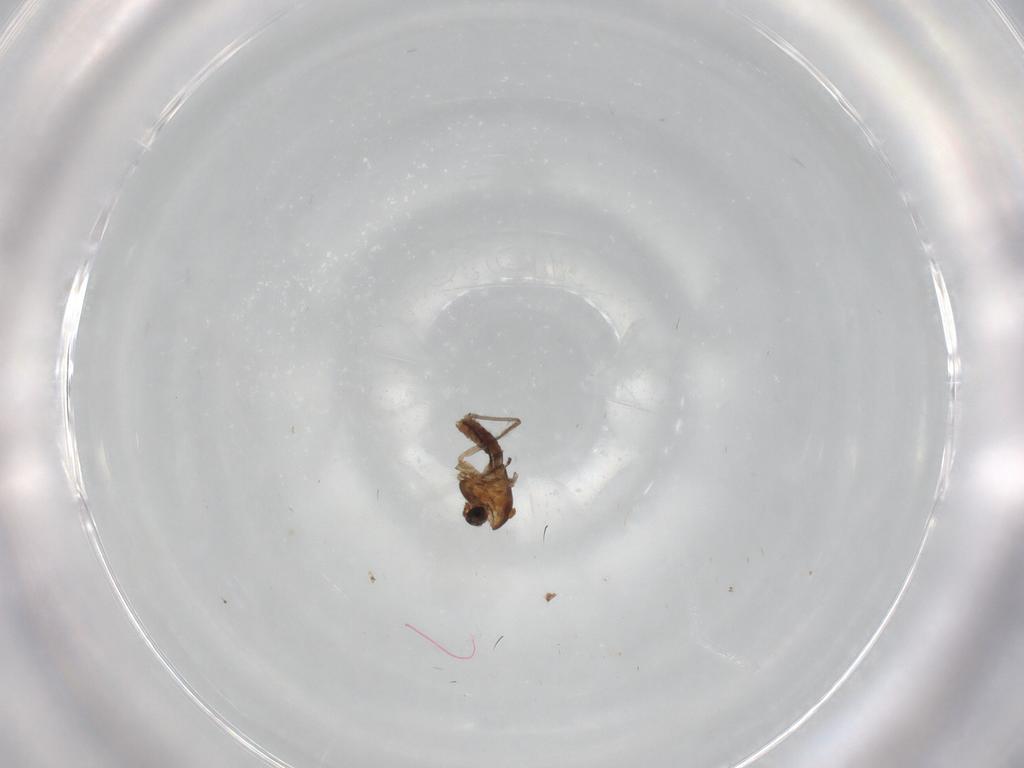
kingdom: Animalia
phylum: Arthropoda
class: Insecta
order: Diptera
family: Chironomidae
